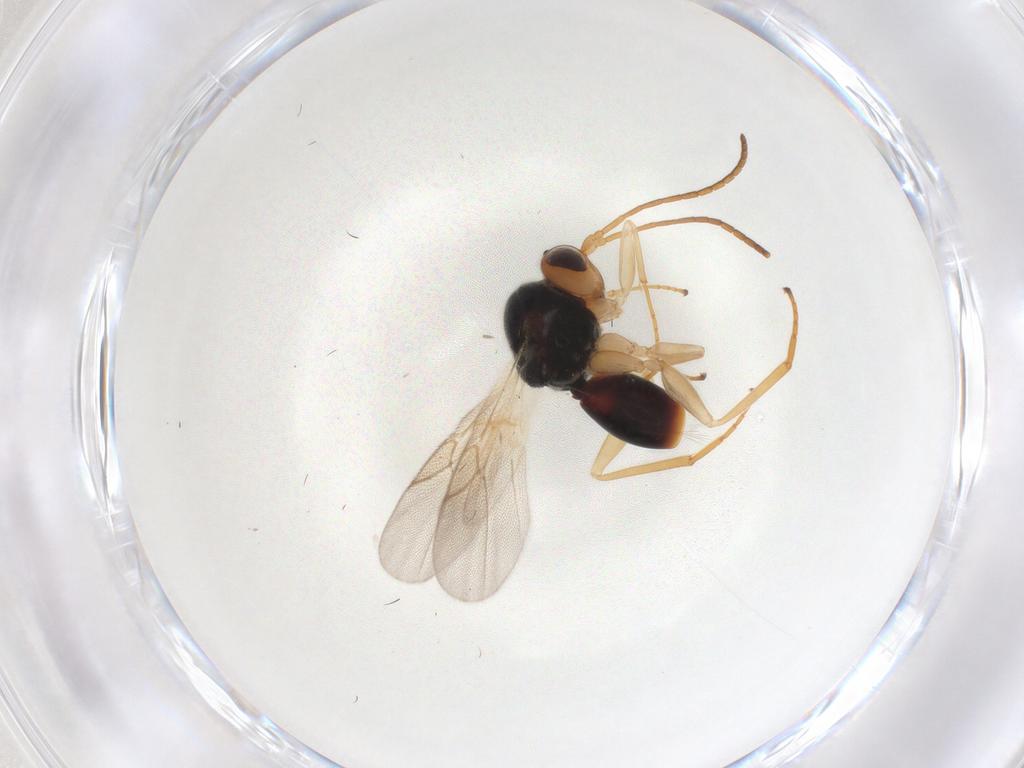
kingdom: Animalia
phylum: Arthropoda
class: Insecta
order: Hymenoptera
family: Cynipidae
